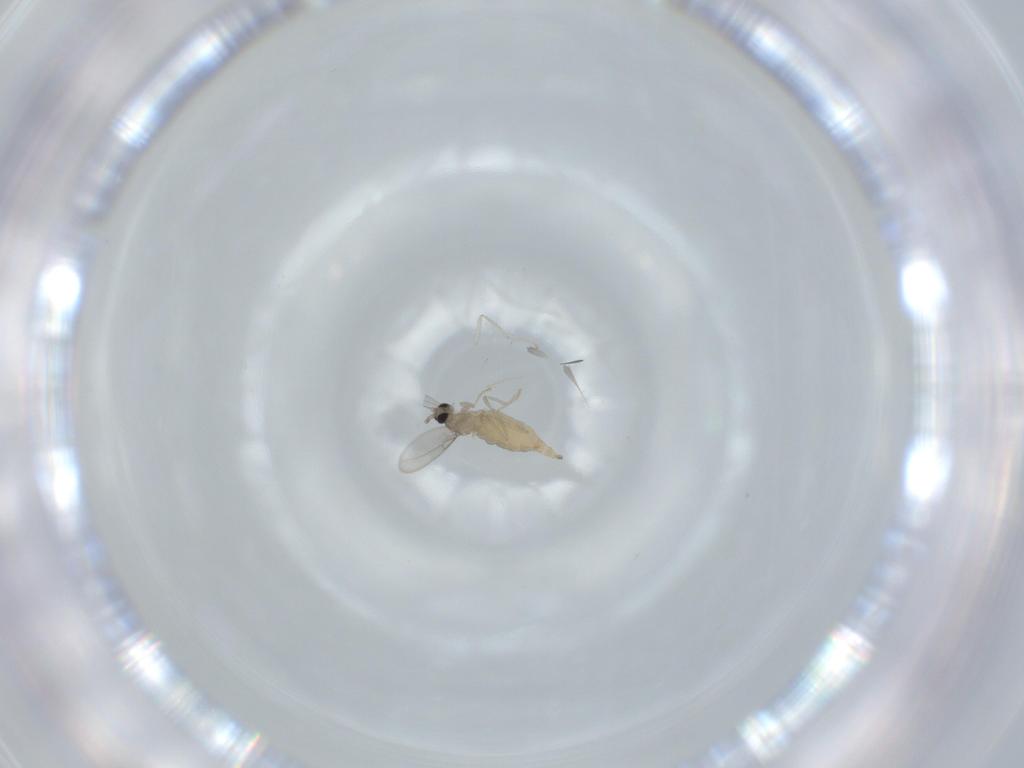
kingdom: Animalia
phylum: Arthropoda
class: Insecta
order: Diptera
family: Cecidomyiidae
